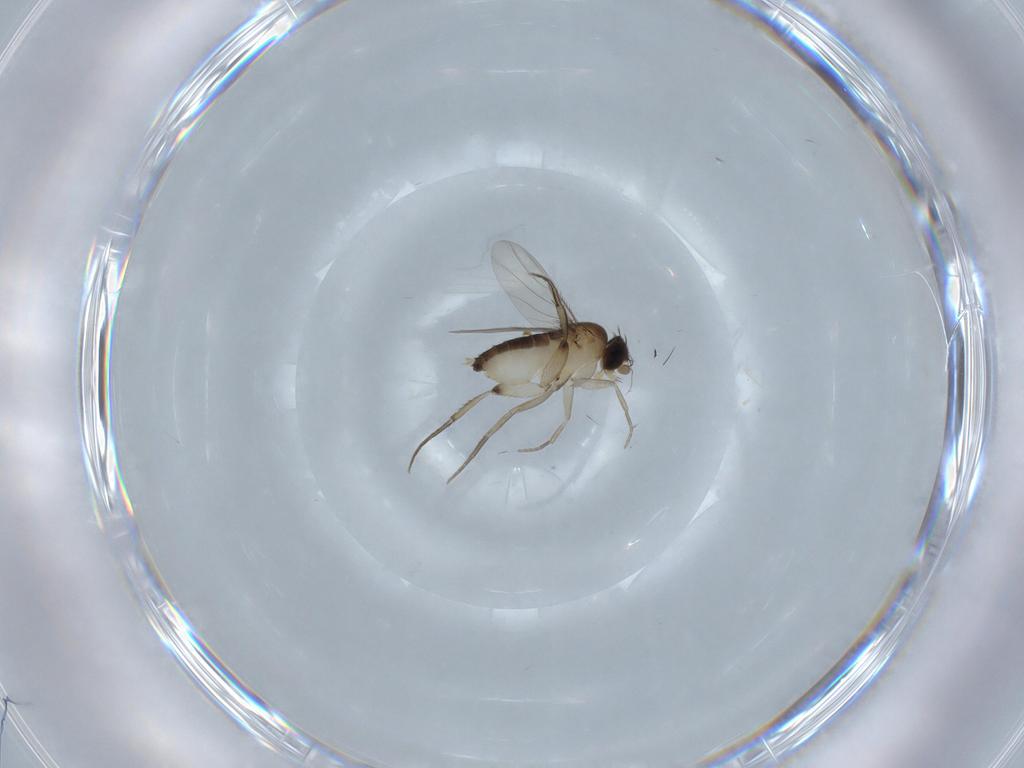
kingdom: Animalia
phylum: Arthropoda
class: Insecta
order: Diptera
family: Phoridae
